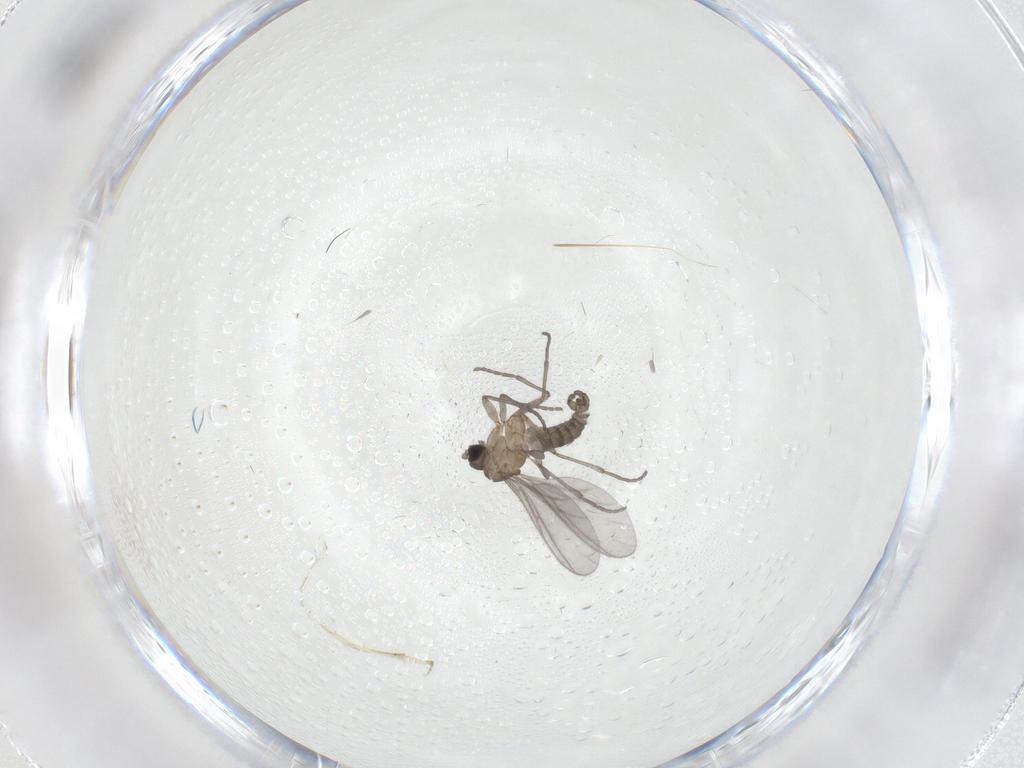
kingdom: Animalia
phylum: Arthropoda
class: Insecta
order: Diptera
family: Sciaridae
